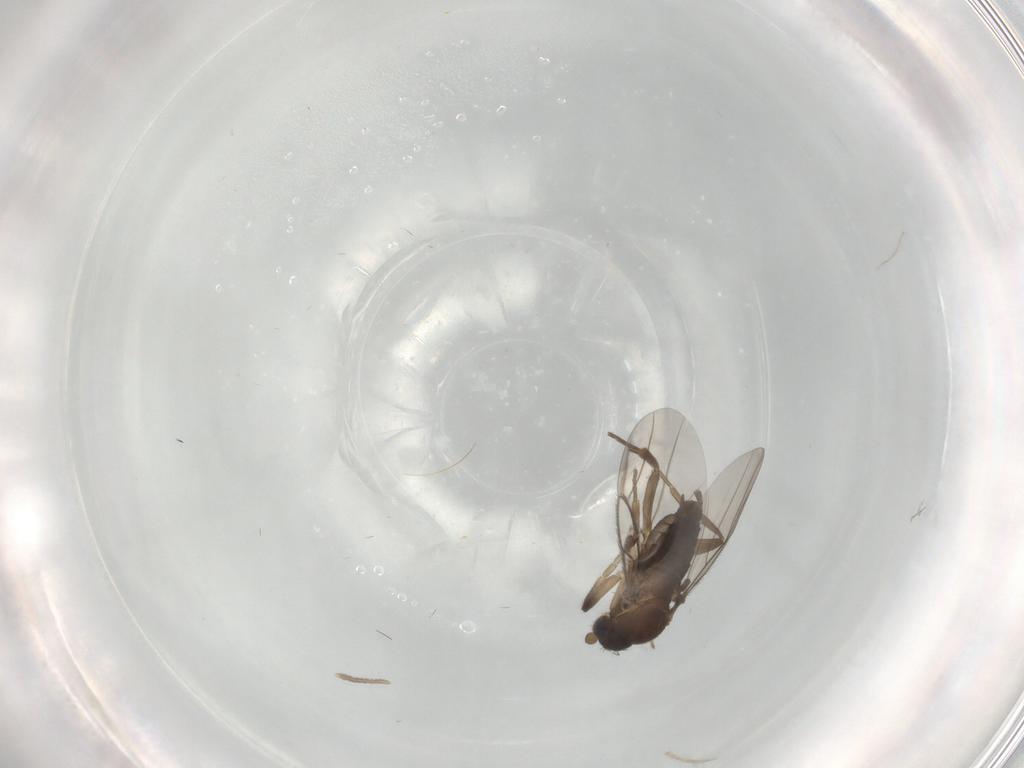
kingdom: Animalia
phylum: Arthropoda
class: Insecta
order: Diptera
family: Phoridae
